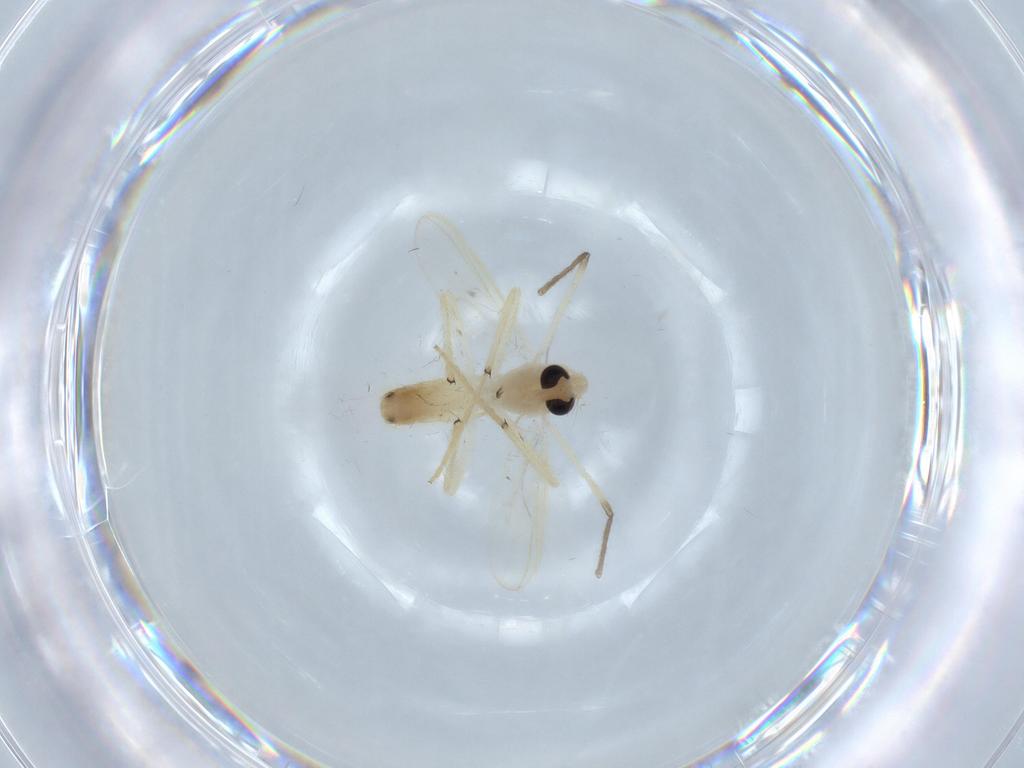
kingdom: Animalia
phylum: Arthropoda
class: Insecta
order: Diptera
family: Chironomidae
